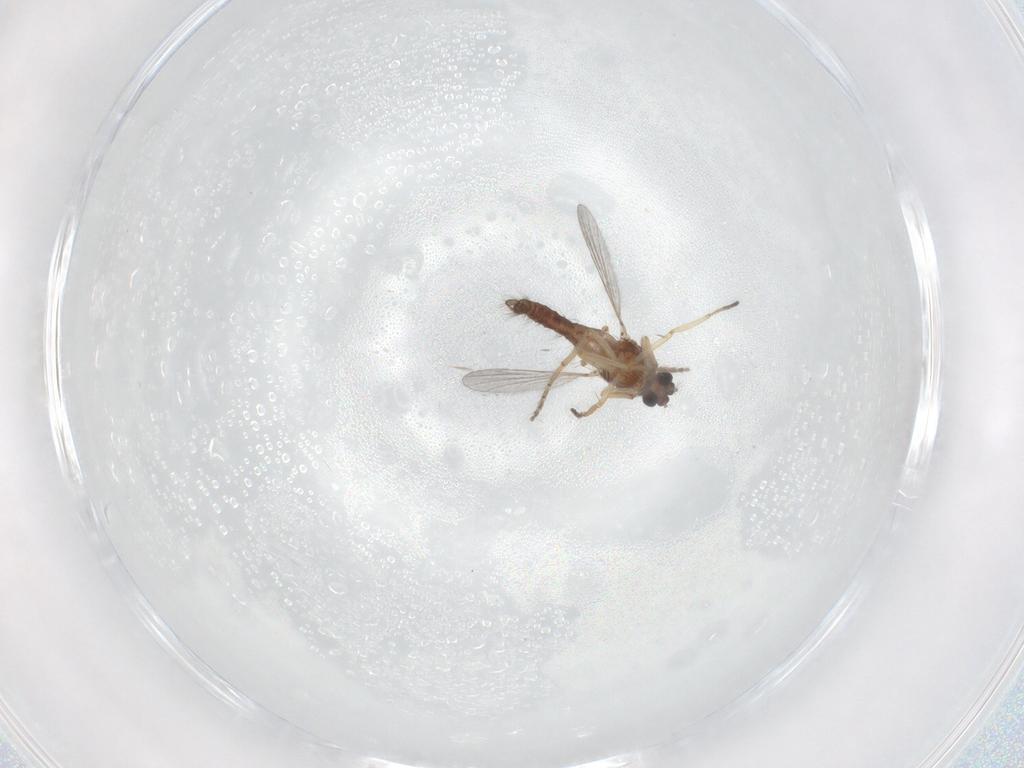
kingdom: Animalia
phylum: Arthropoda
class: Insecta
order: Diptera
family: Ceratopogonidae
